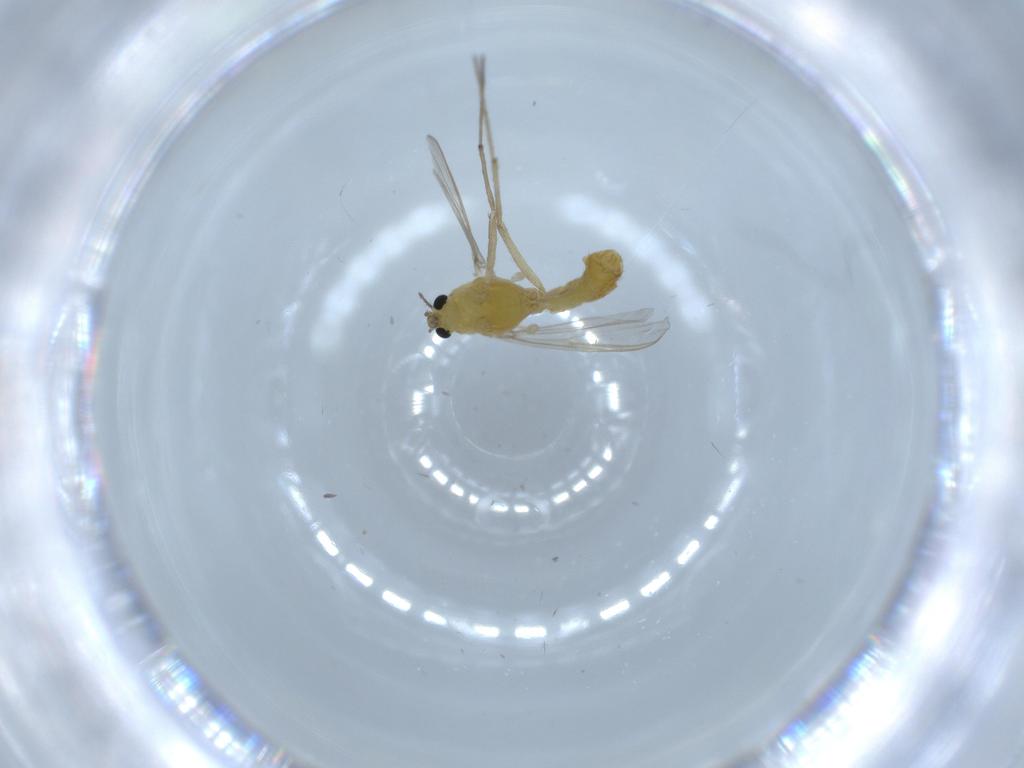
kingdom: Animalia
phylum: Arthropoda
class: Insecta
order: Diptera
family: Chironomidae
